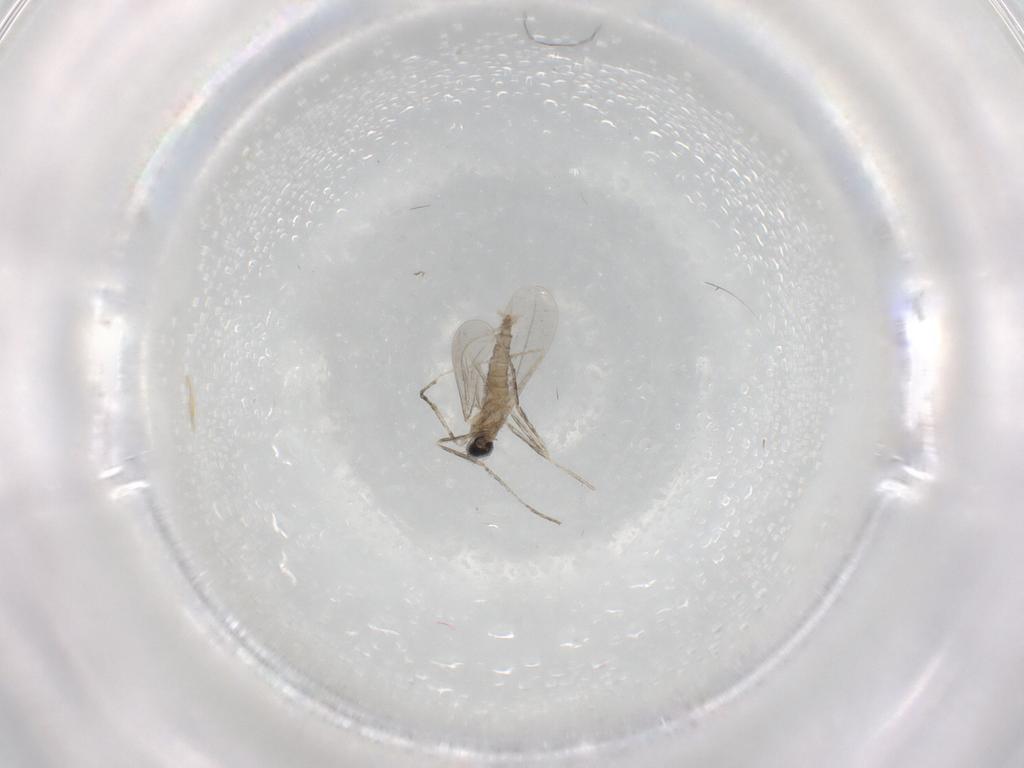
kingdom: Animalia
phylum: Arthropoda
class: Insecta
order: Diptera
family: Cecidomyiidae
